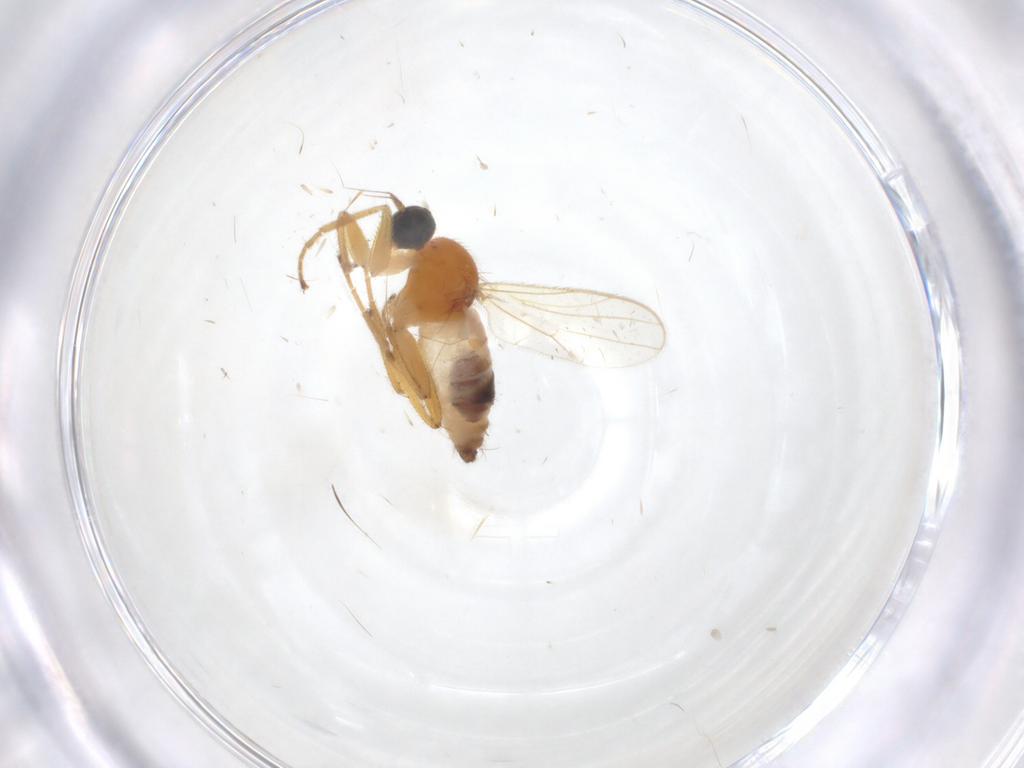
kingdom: Animalia
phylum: Arthropoda
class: Insecta
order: Diptera
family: Hybotidae
